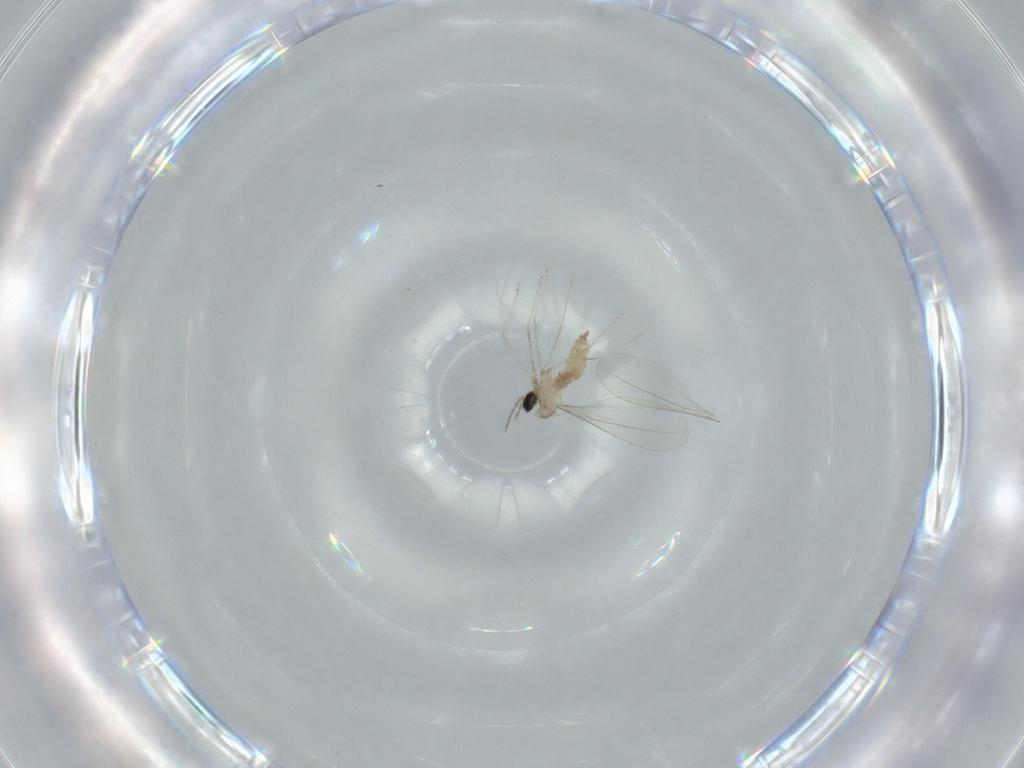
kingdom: Animalia
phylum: Arthropoda
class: Insecta
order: Diptera
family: Cecidomyiidae
